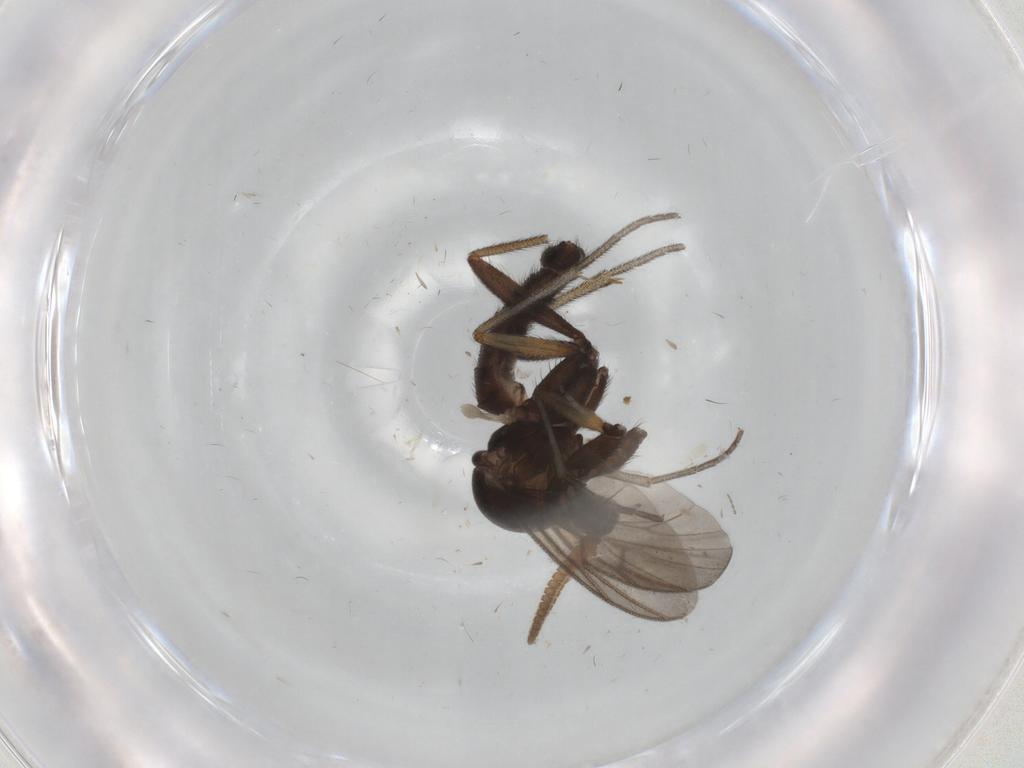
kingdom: Animalia
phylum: Arthropoda
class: Insecta
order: Diptera
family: Mycetophilidae
